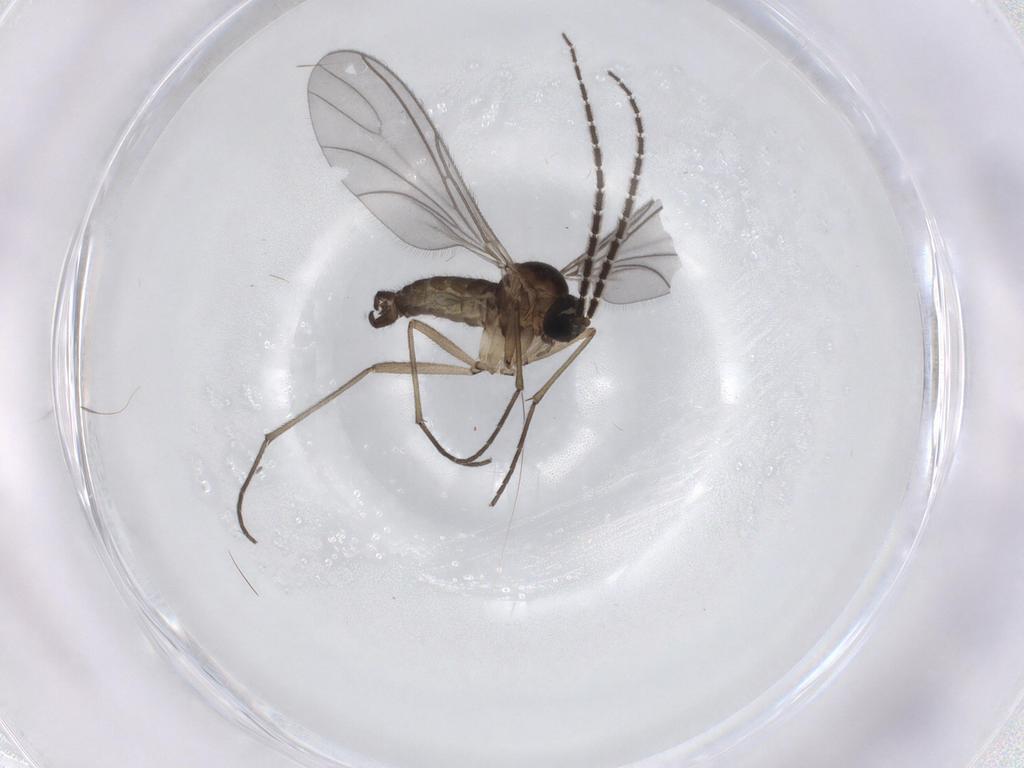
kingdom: Animalia
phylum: Arthropoda
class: Insecta
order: Diptera
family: Sciaridae
